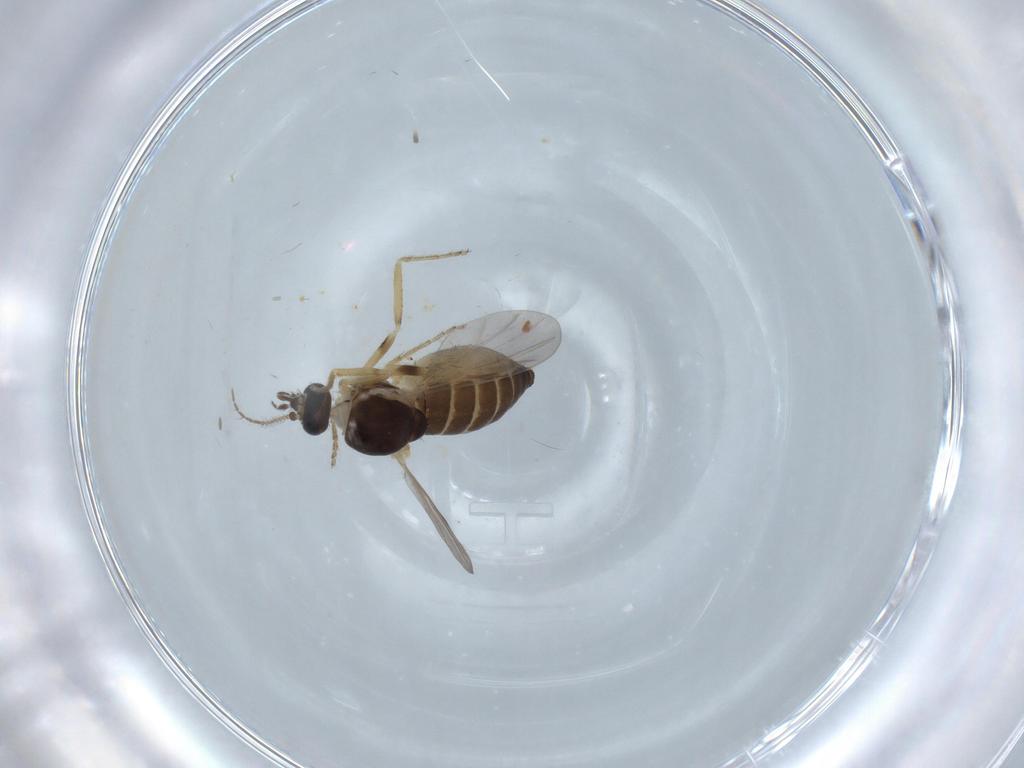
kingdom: Animalia
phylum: Arthropoda
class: Insecta
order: Diptera
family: Ceratopogonidae
